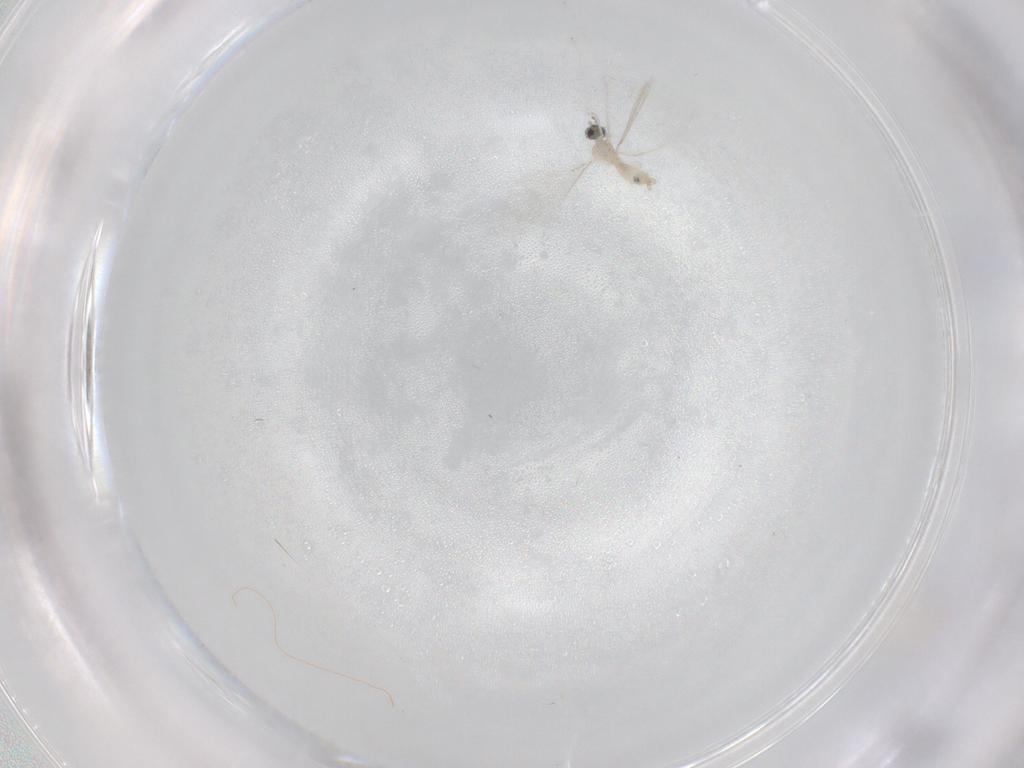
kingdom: Animalia
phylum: Arthropoda
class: Insecta
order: Diptera
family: Cecidomyiidae
